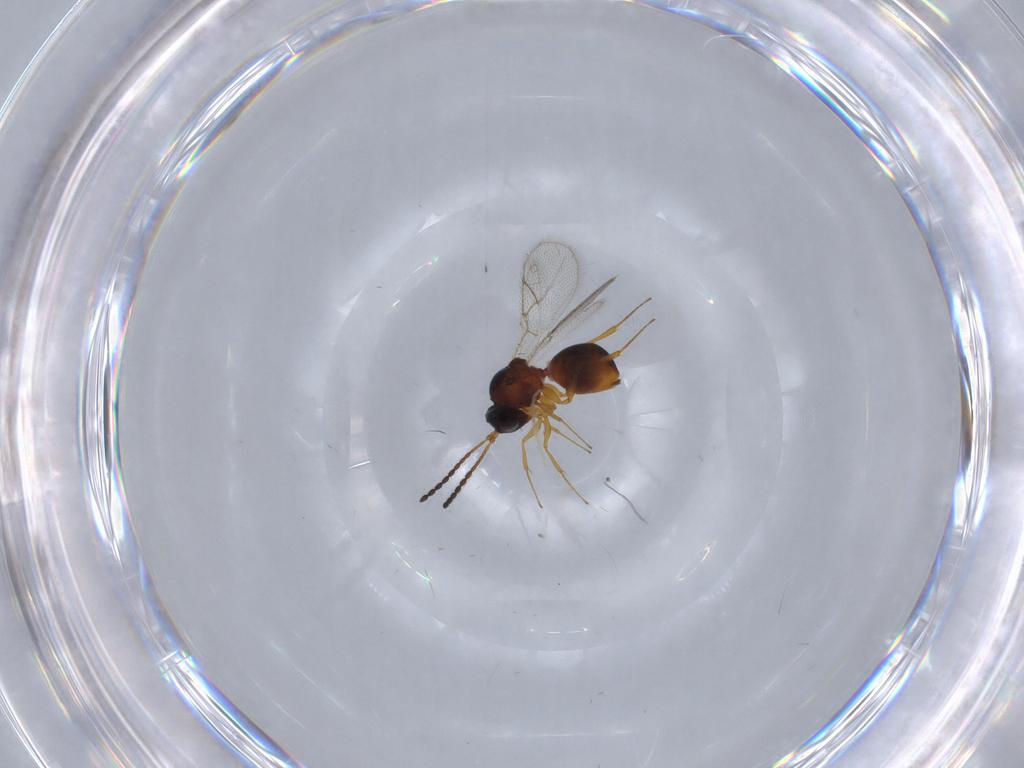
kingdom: Animalia
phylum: Arthropoda
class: Insecta
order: Hymenoptera
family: Figitidae
